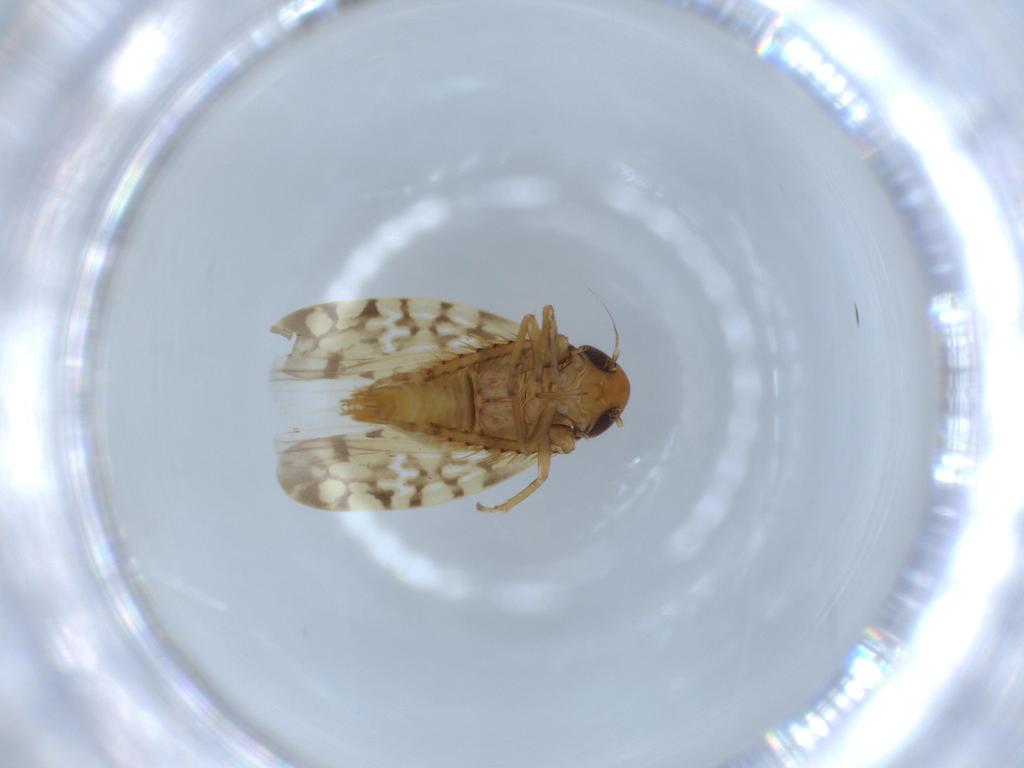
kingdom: Animalia
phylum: Arthropoda
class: Insecta
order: Hemiptera
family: Cicadellidae
